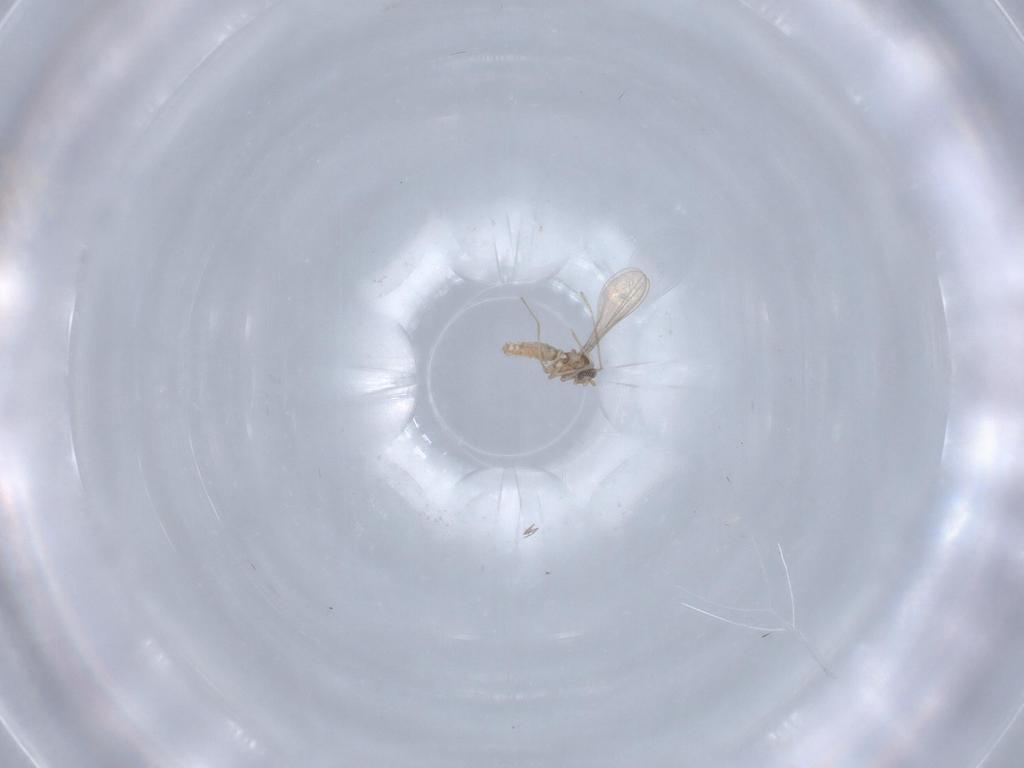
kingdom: Animalia
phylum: Arthropoda
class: Insecta
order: Diptera
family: Cecidomyiidae
